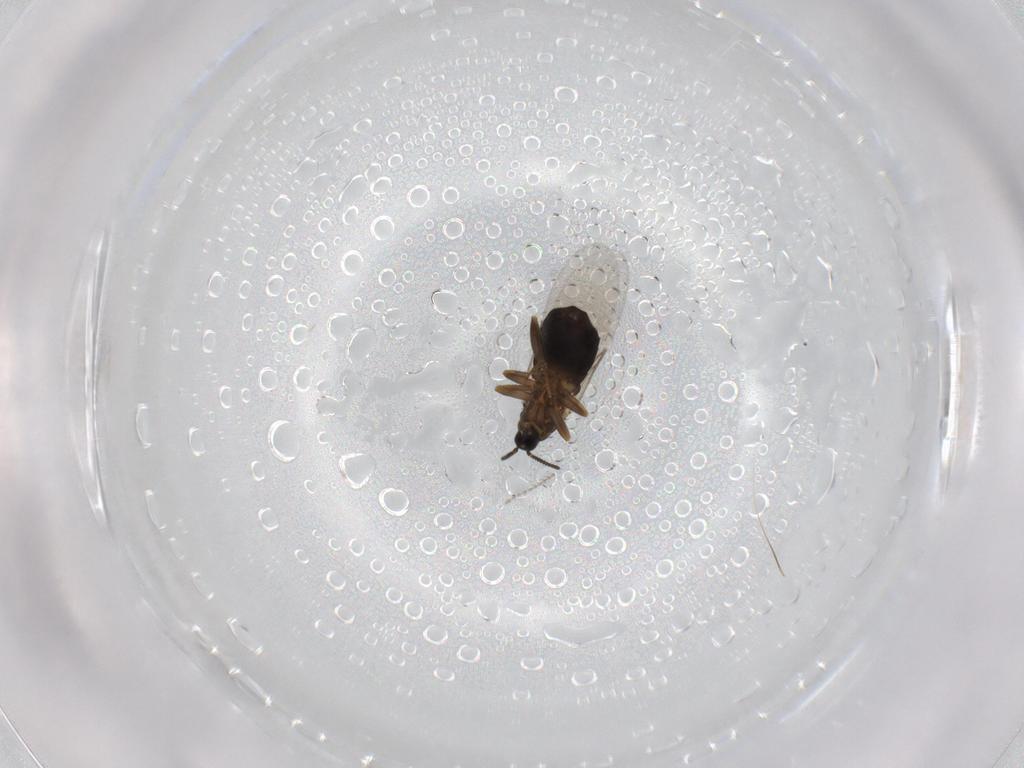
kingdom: Animalia
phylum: Arthropoda
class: Insecta
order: Diptera
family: Scatopsidae
